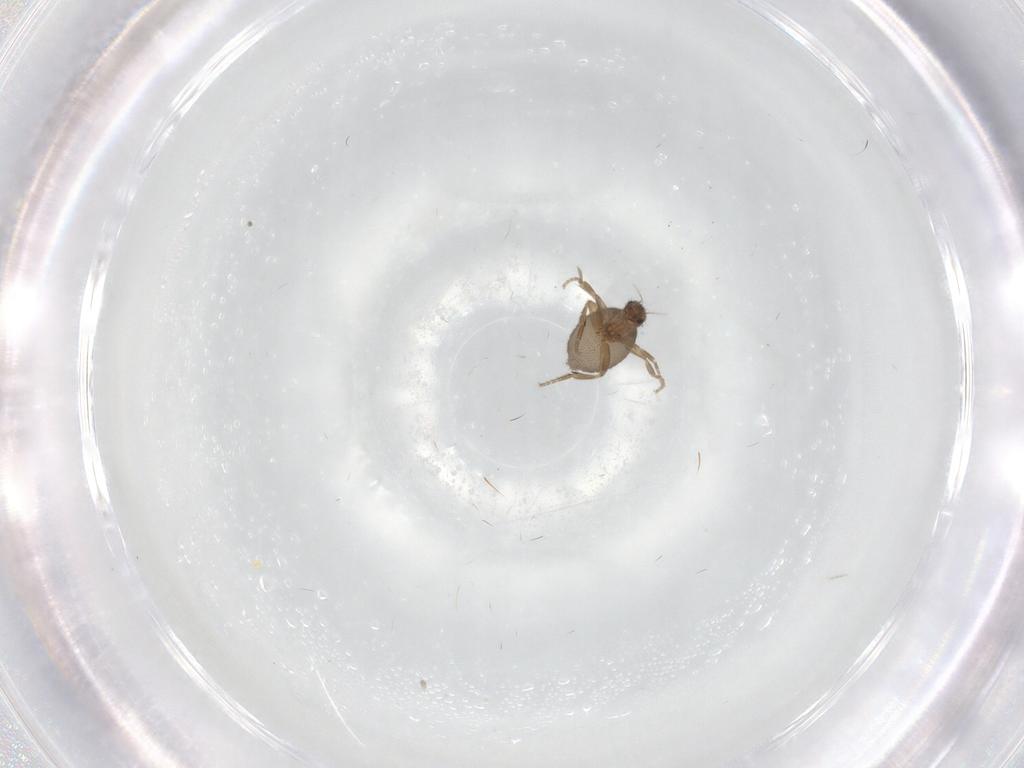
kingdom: Animalia
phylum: Arthropoda
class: Insecta
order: Diptera
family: Phoridae
